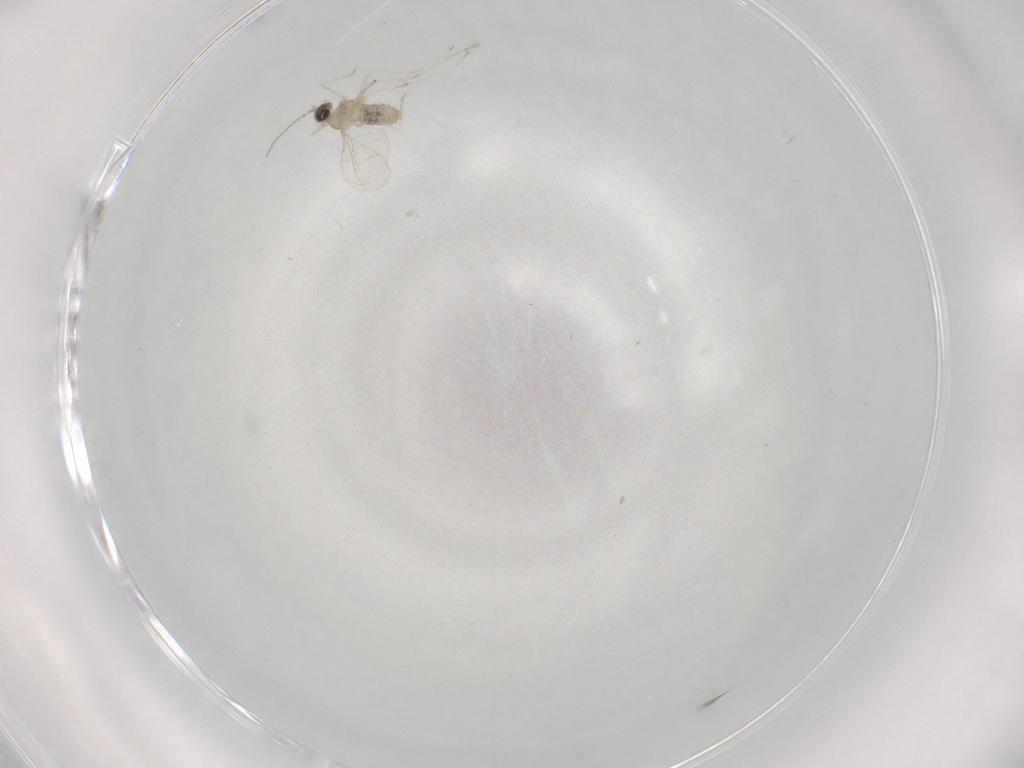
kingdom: Animalia
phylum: Arthropoda
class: Insecta
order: Diptera
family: Cecidomyiidae
